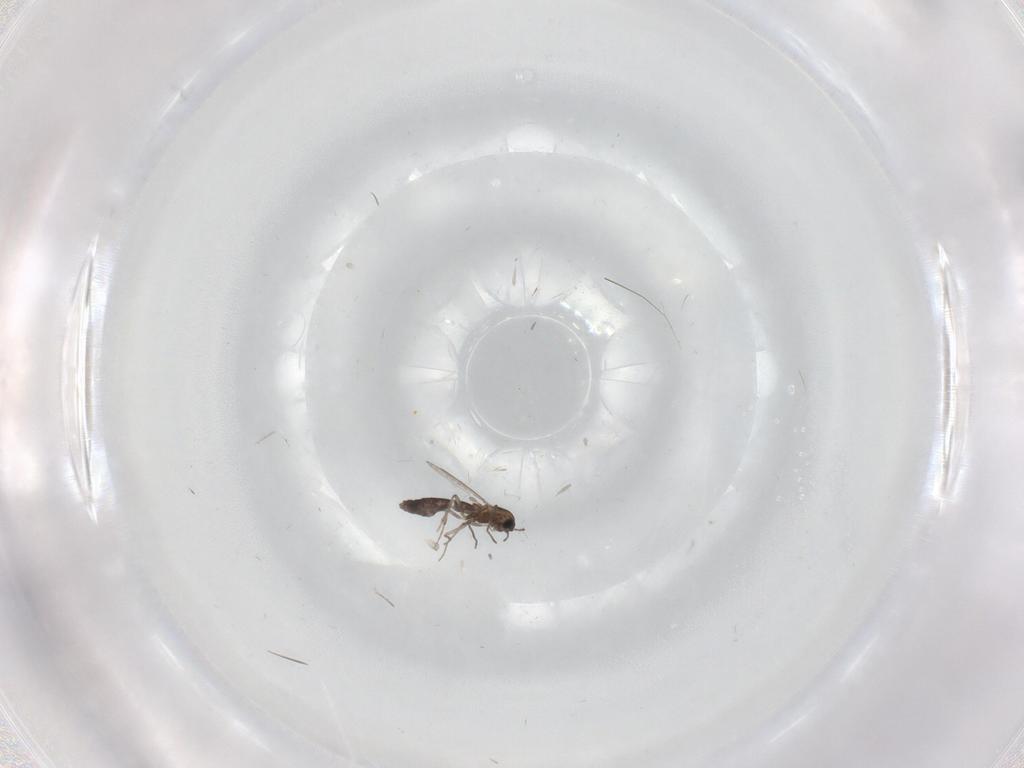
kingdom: Animalia
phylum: Arthropoda
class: Insecta
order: Diptera
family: Chironomidae
